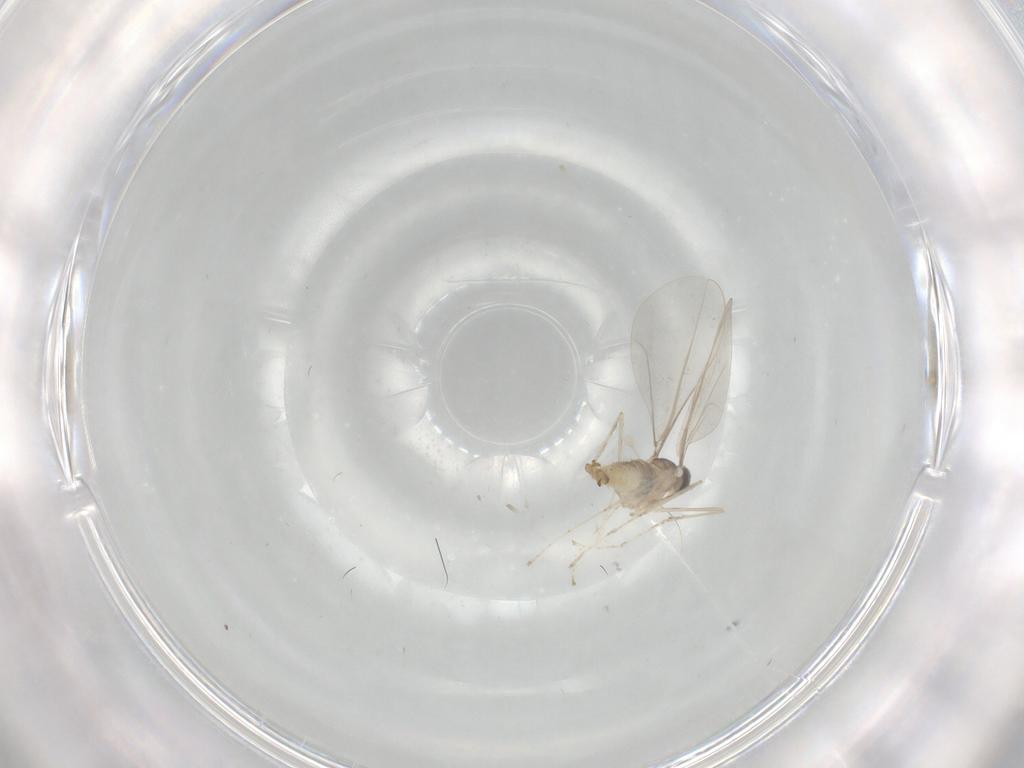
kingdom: Animalia
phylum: Arthropoda
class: Insecta
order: Diptera
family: Cecidomyiidae
